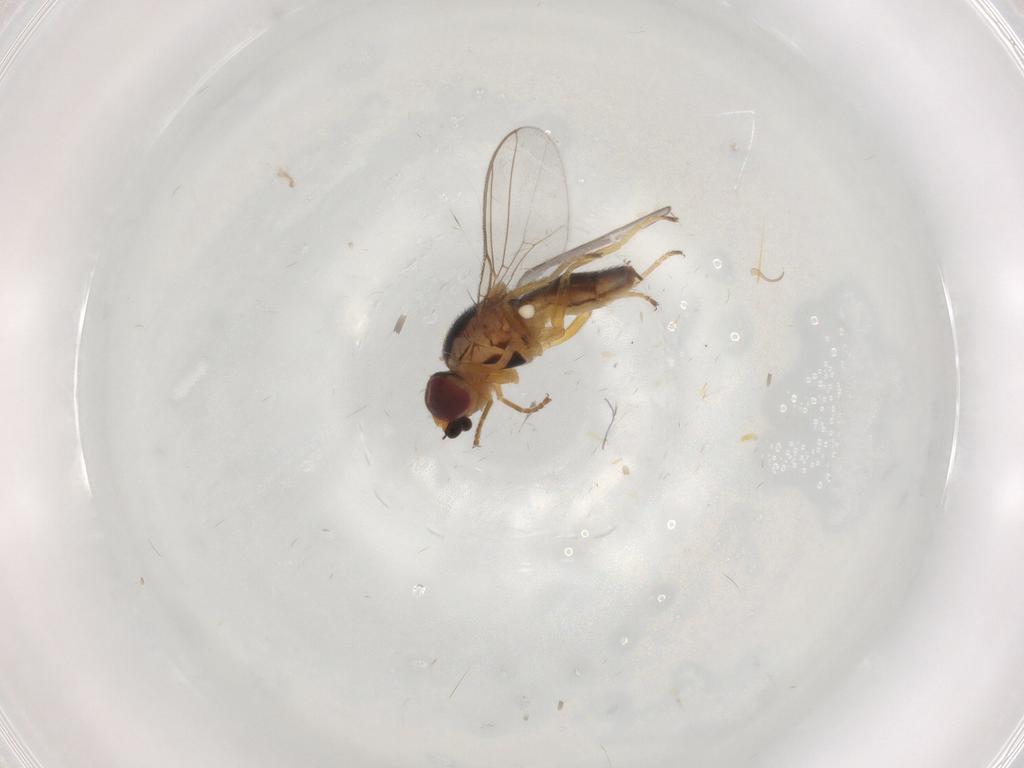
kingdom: Animalia
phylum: Arthropoda
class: Insecta
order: Diptera
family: Chloropidae
